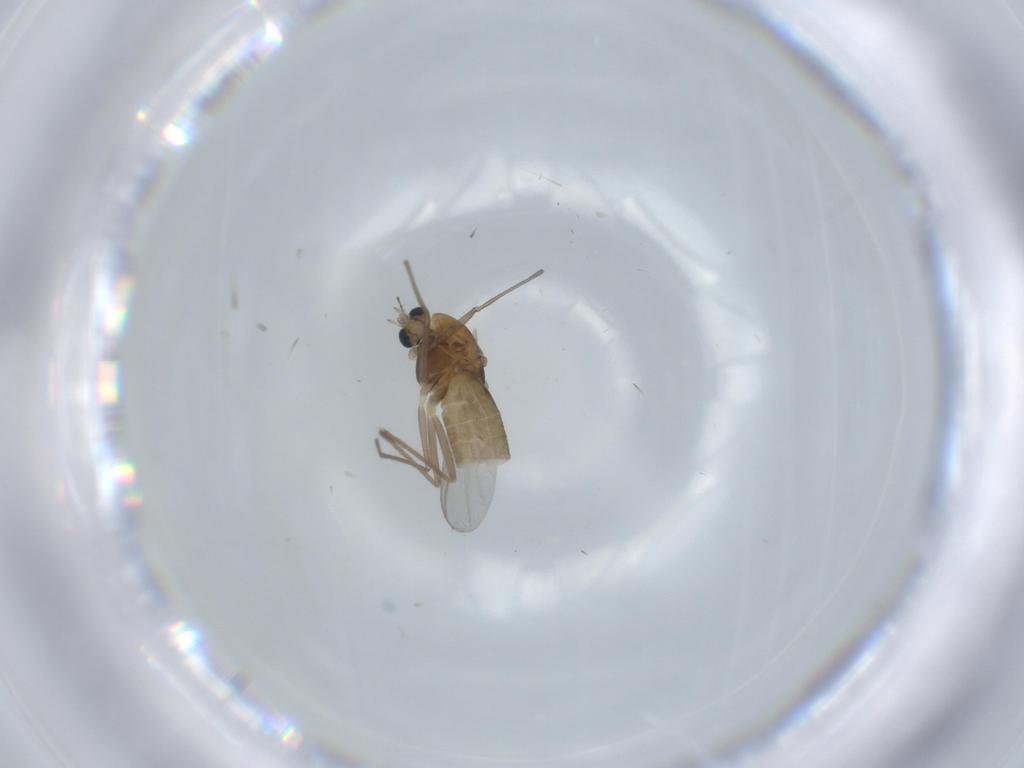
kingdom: Animalia
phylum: Arthropoda
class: Insecta
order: Diptera
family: Chironomidae
